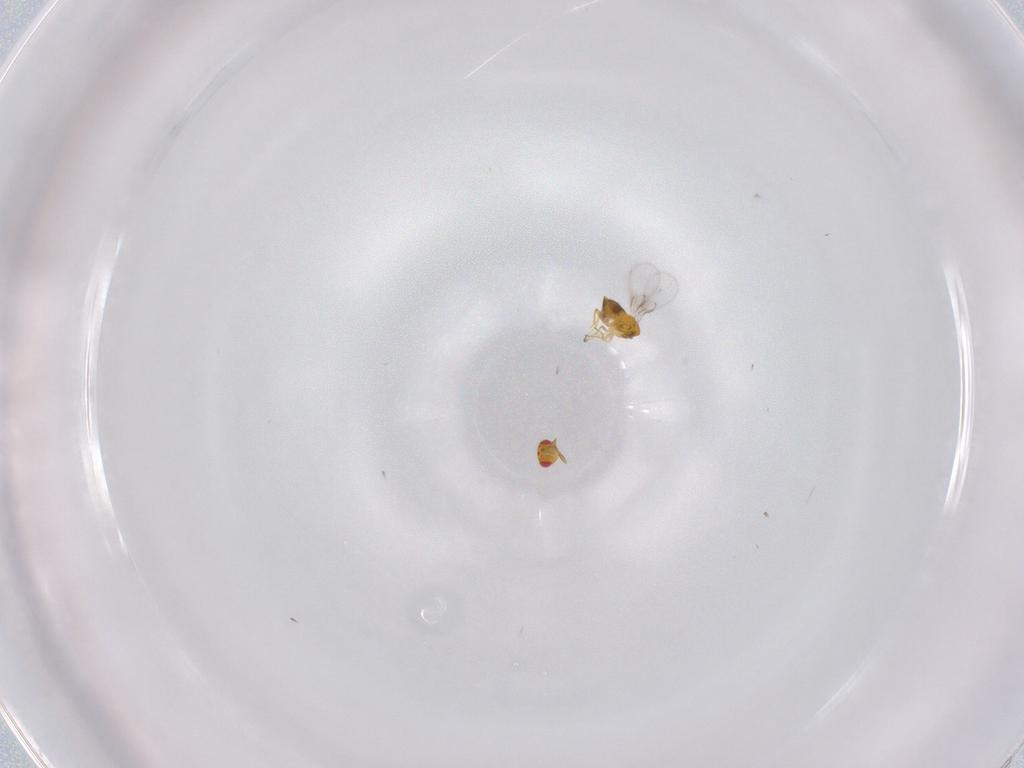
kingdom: Animalia
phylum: Arthropoda
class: Insecta
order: Hymenoptera
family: Trichogrammatidae
